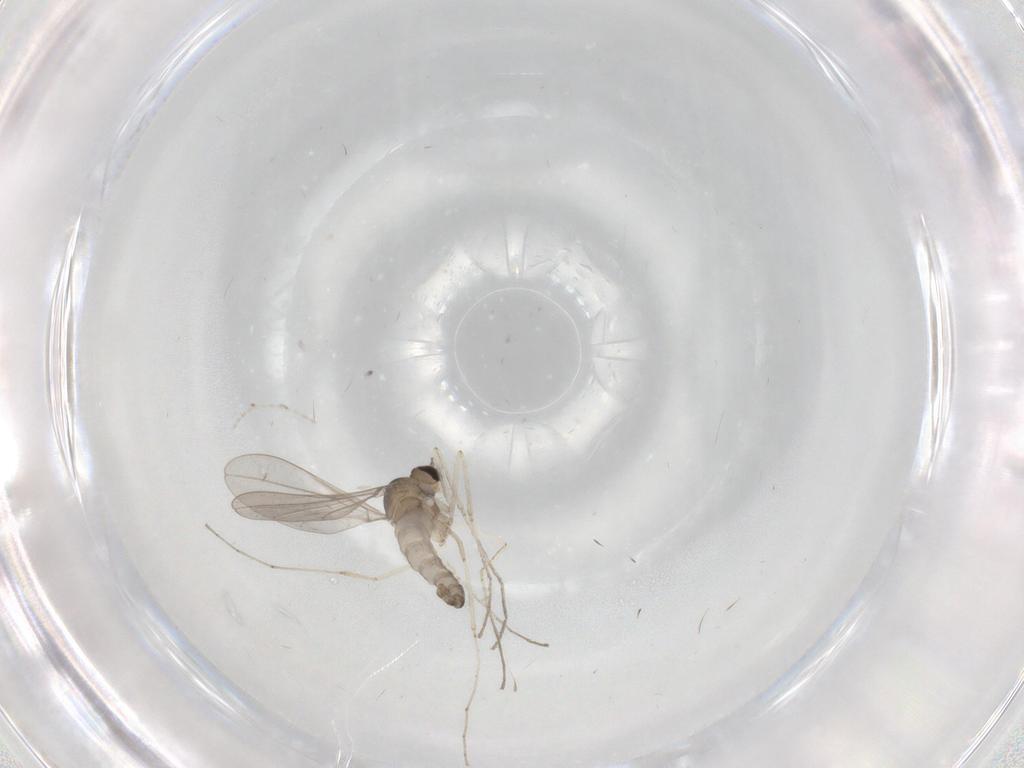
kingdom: Animalia
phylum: Arthropoda
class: Insecta
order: Diptera
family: Cecidomyiidae
